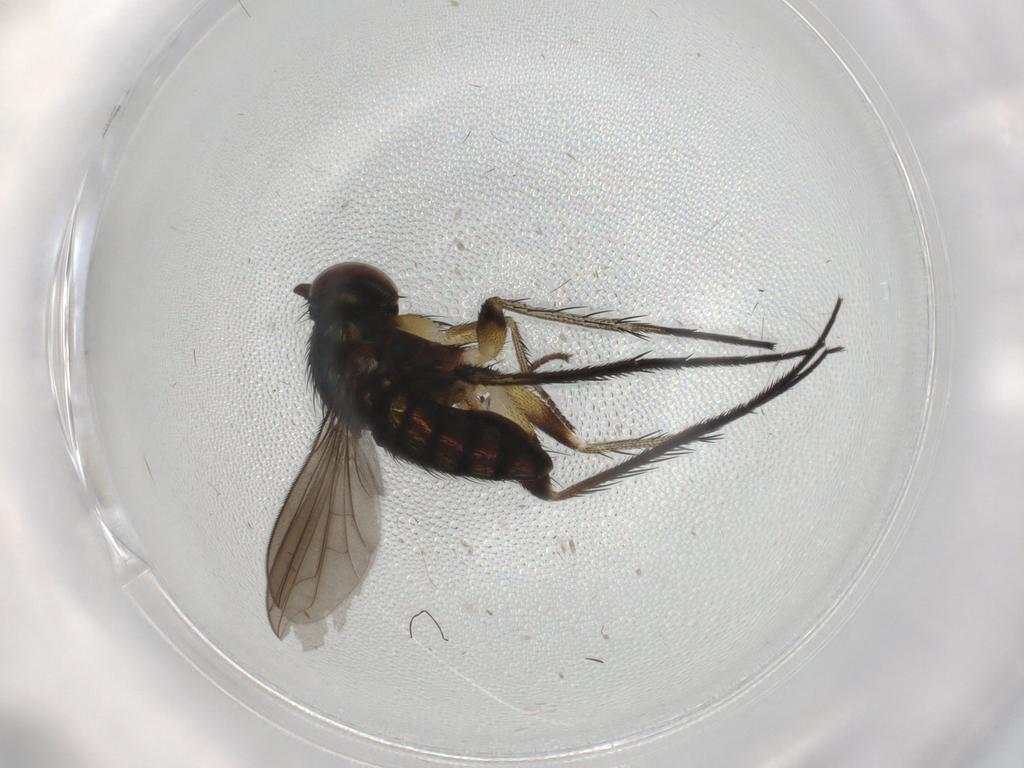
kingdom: Animalia
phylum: Arthropoda
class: Insecta
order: Diptera
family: Dolichopodidae
